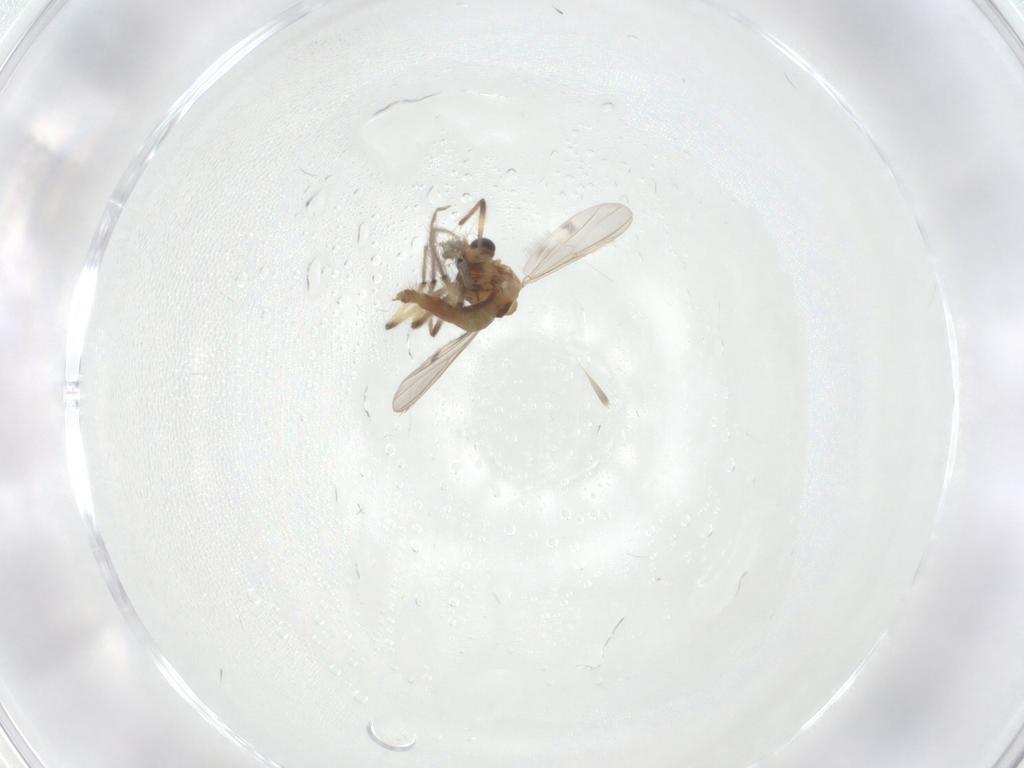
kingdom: Animalia
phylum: Arthropoda
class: Insecta
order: Diptera
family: Chironomidae
